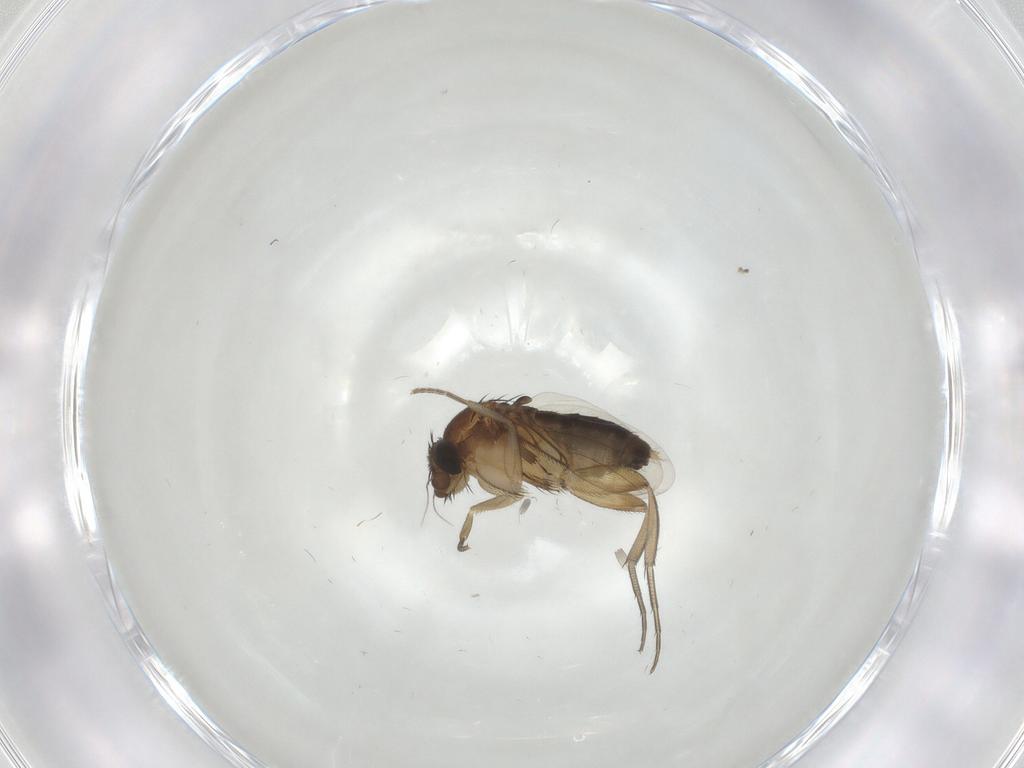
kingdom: Animalia
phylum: Arthropoda
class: Insecta
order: Diptera
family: Phoridae
